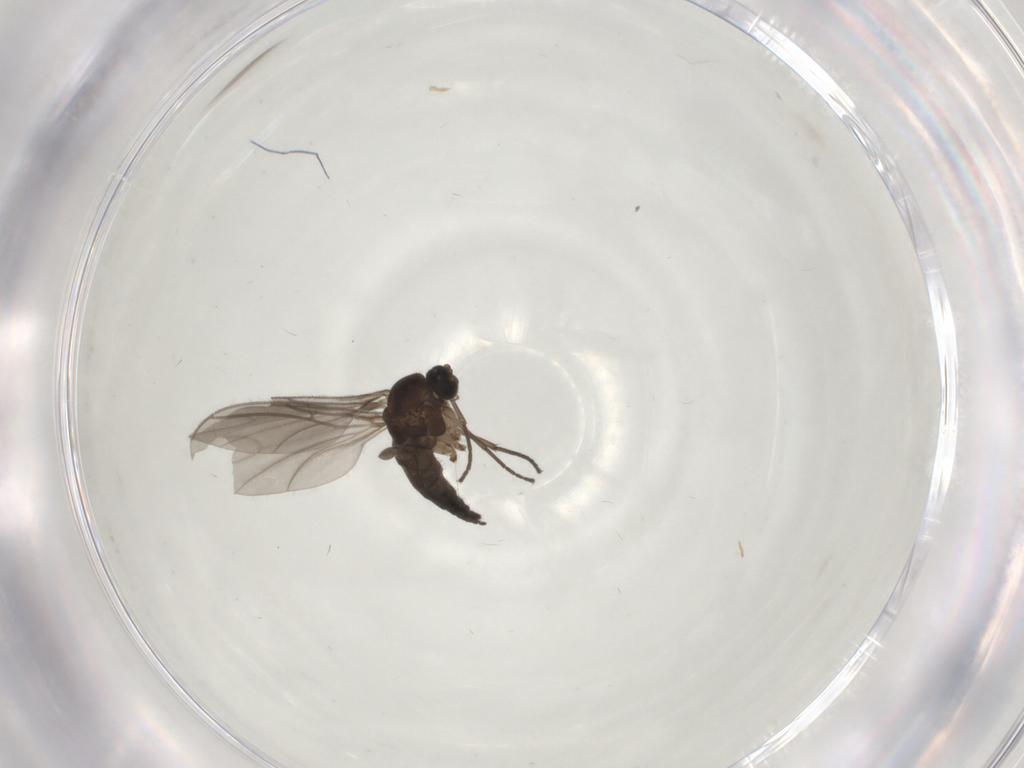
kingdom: Animalia
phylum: Arthropoda
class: Insecta
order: Diptera
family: Sciaridae
